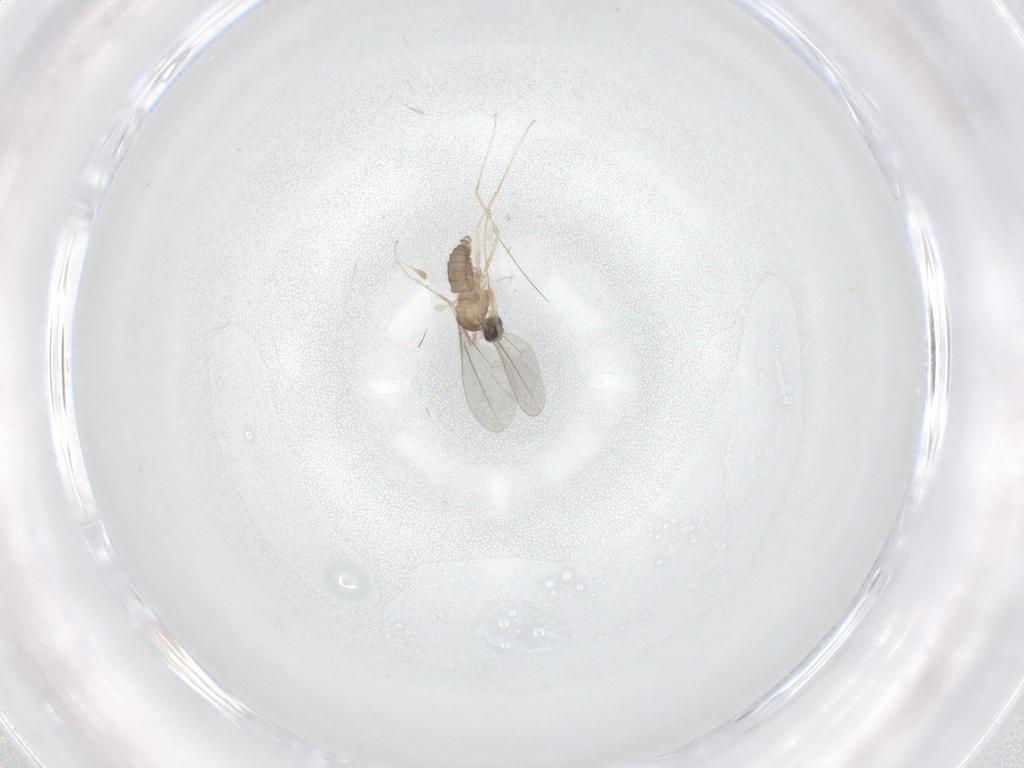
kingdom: Animalia
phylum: Arthropoda
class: Insecta
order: Diptera
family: Cecidomyiidae
